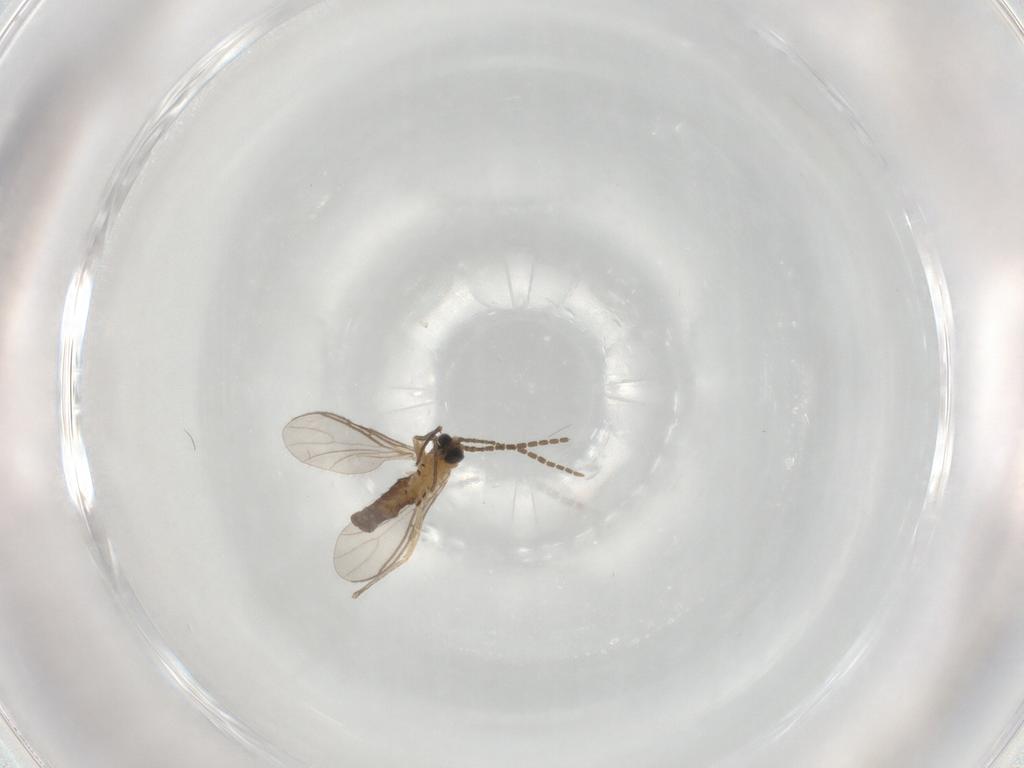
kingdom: Animalia
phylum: Arthropoda
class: Insecta
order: Diptera
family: Sciaridae
